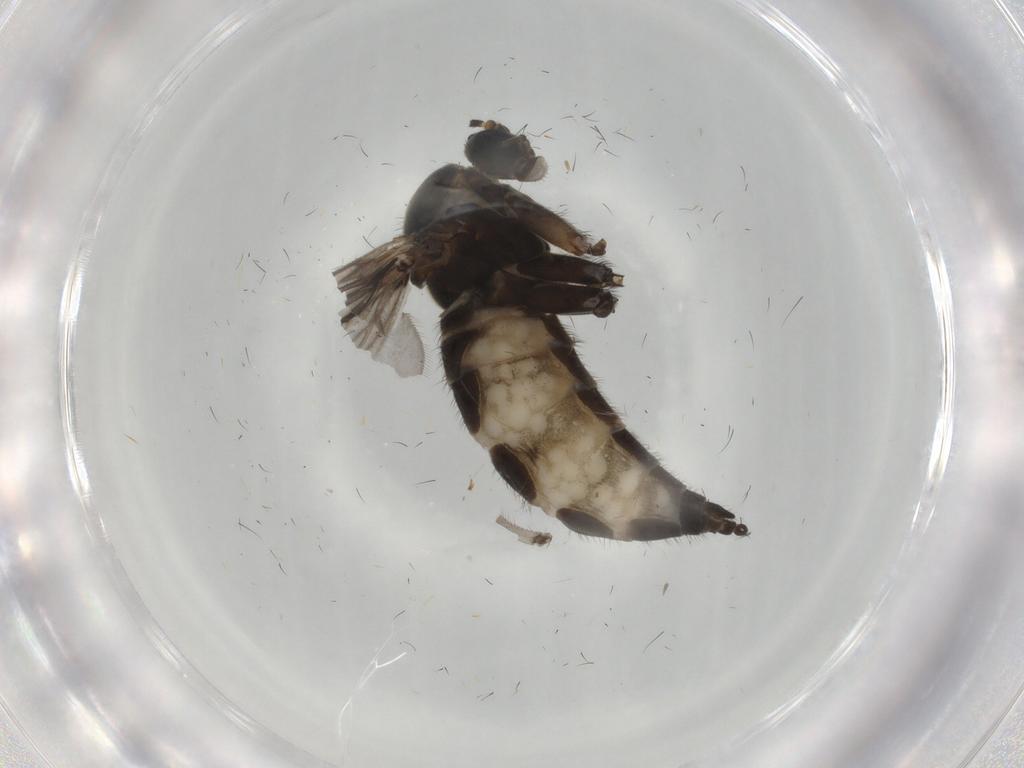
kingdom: Animalia
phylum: Arthropoda
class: Insecta
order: Diptera
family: Sciaridae
